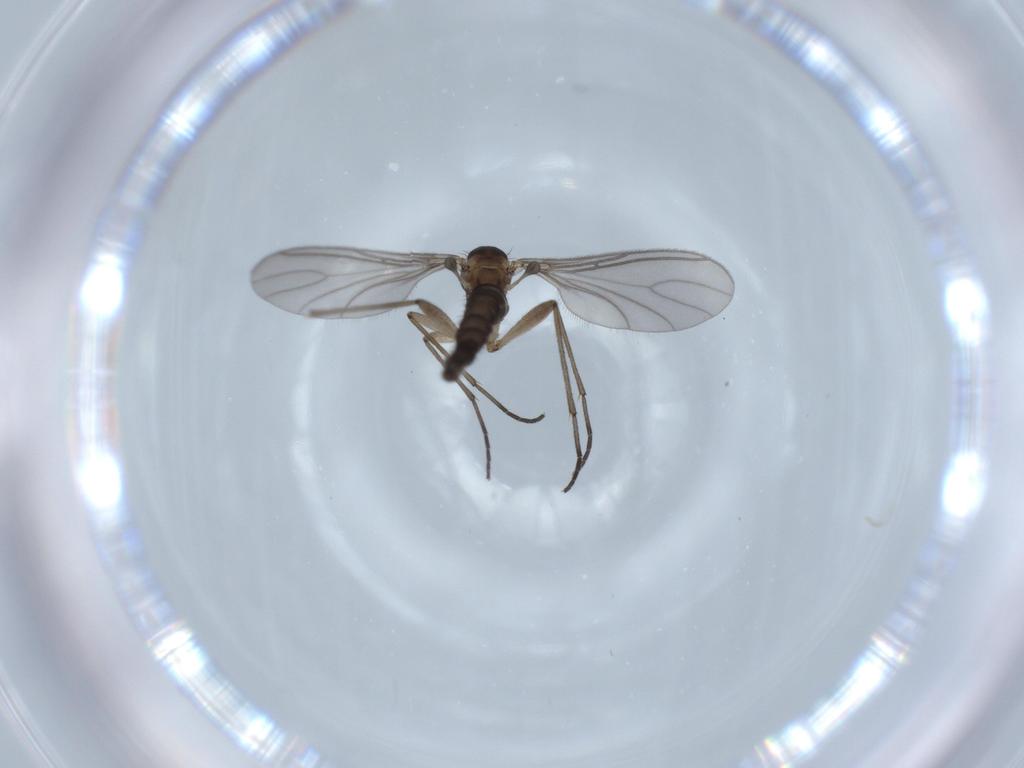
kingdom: Animalia
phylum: Arthropoda
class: Insecta
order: Diptera
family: Sciaridae
